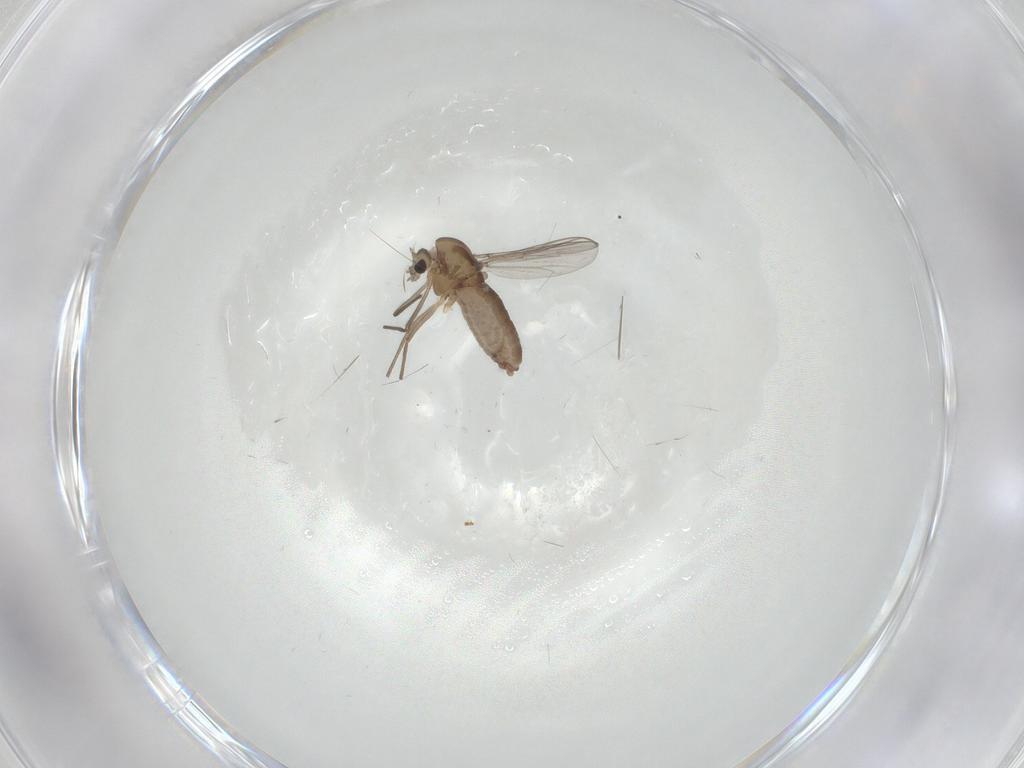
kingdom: Animalia
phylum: Arthropoda
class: Insecta
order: Diptera
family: Chironomidae
